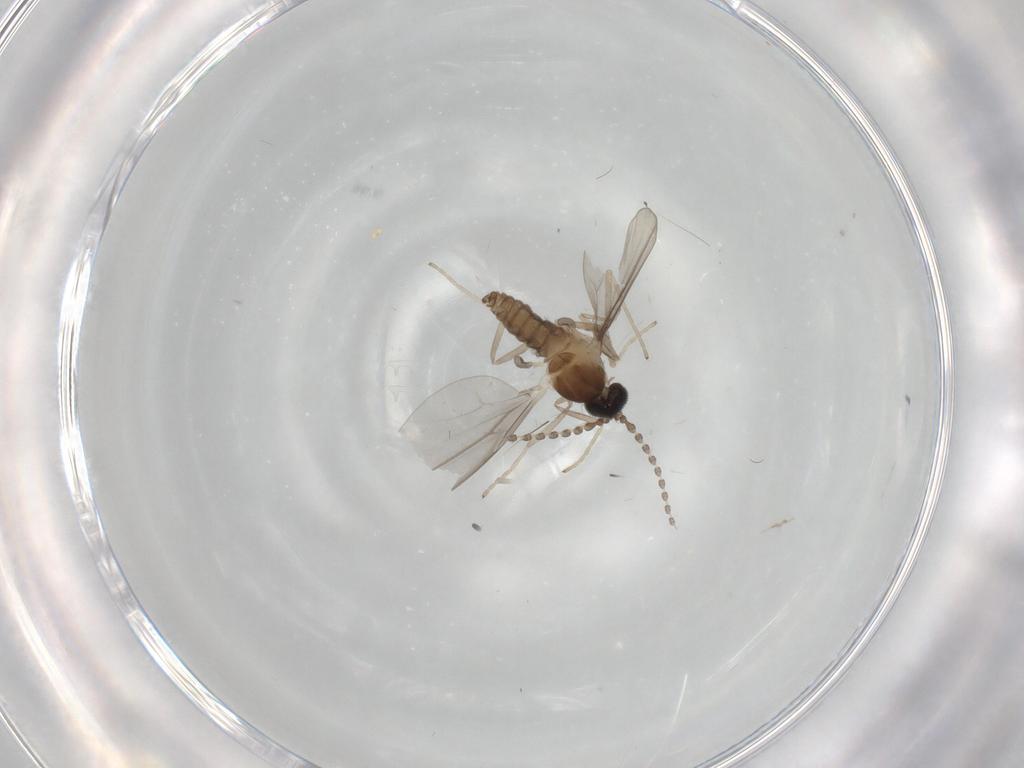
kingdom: Animalia
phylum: Arthropoda
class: Insecta
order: Diptera
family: Cecidomyiidae
